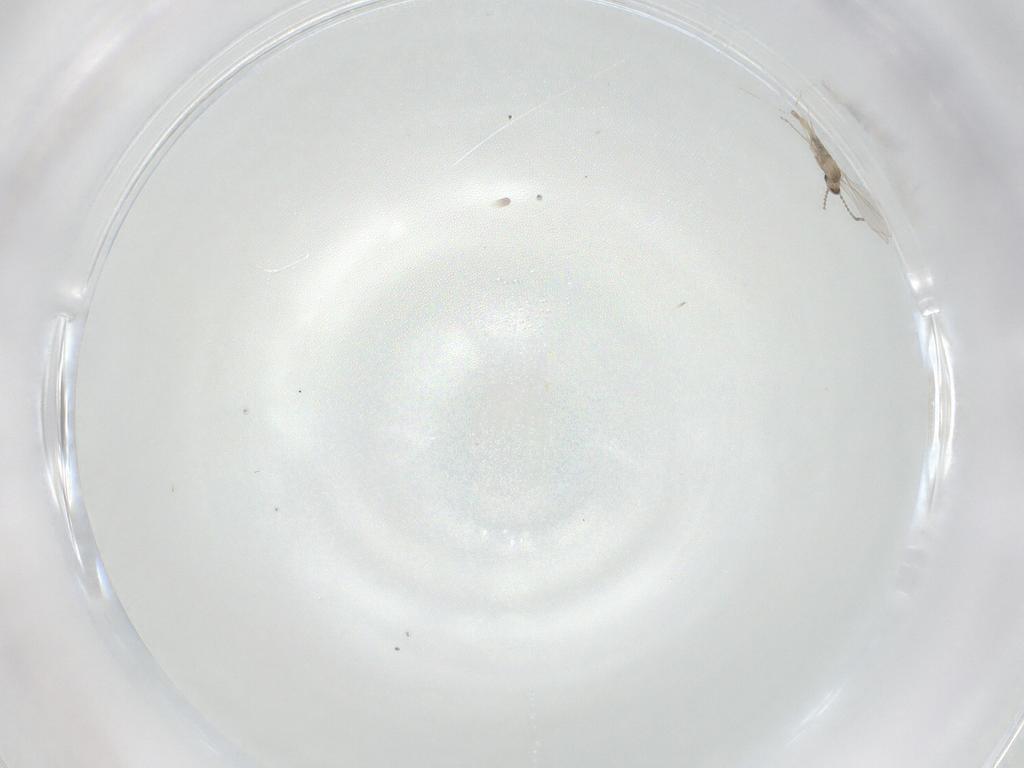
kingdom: Animalia
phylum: Arthropoda
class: Insecta
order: Diptera
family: Cecidomyiidae
